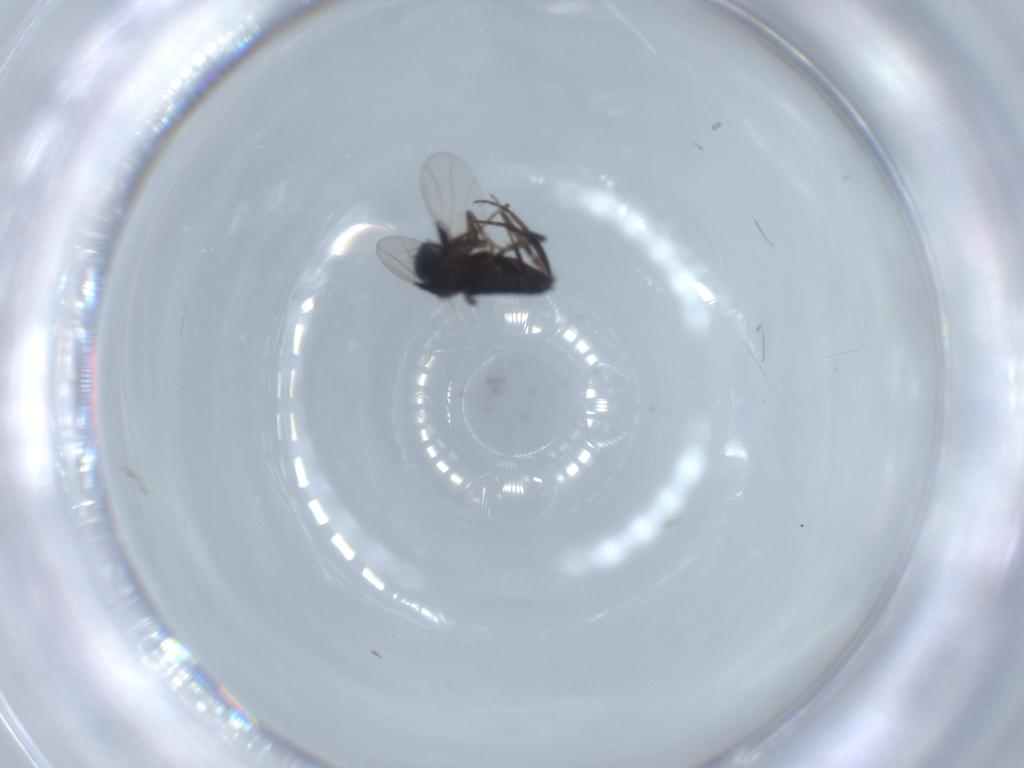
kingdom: Animalia
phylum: Arthropoda
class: Insecta
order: Diptera
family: Phoridae
